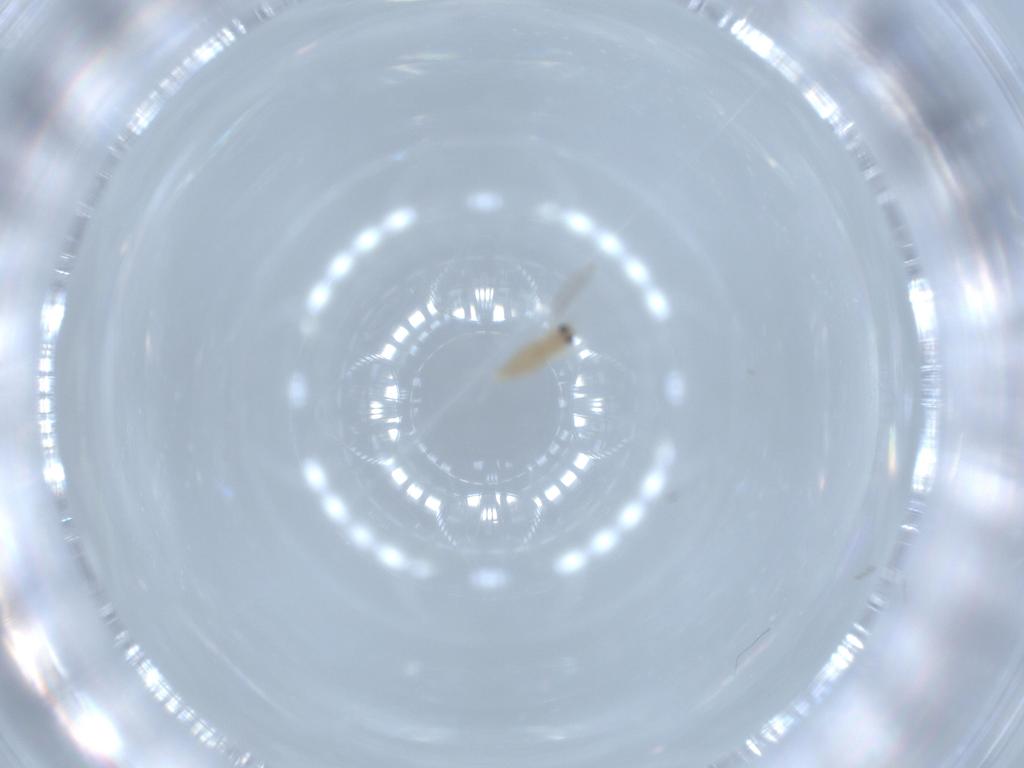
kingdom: Animalia
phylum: Arthropoda
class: Insecta
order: Diptera
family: Cecidomyiidae
